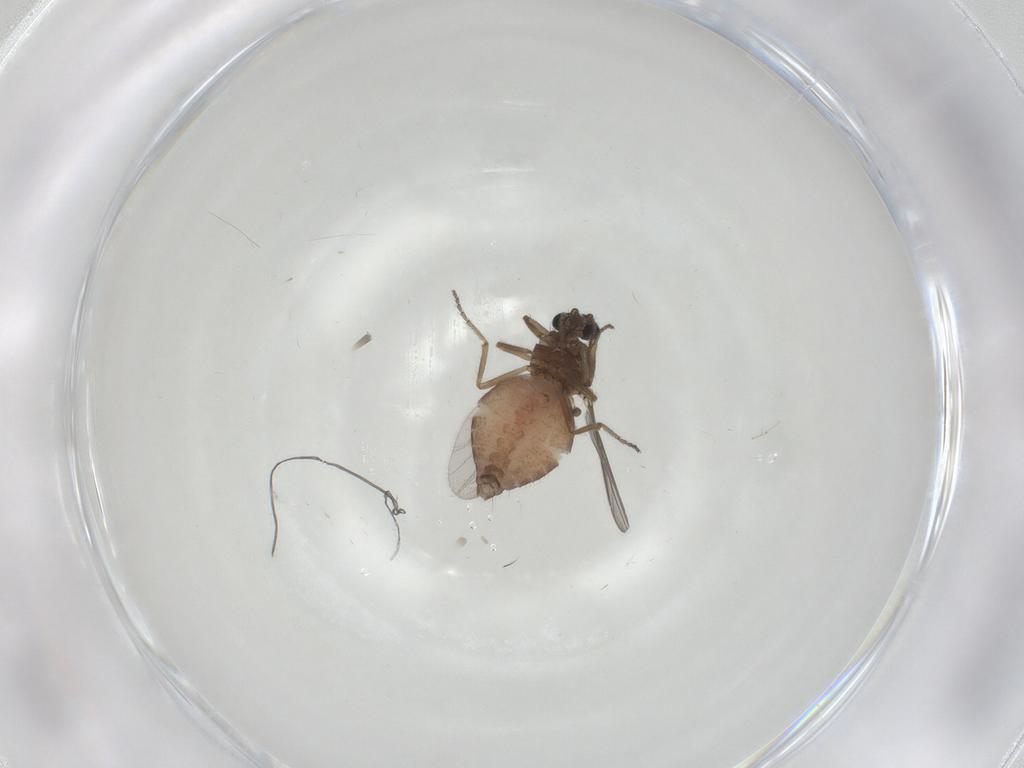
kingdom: Animalia
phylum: Arthropoda
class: Insecta
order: Diptera
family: Ceratopogonidae
